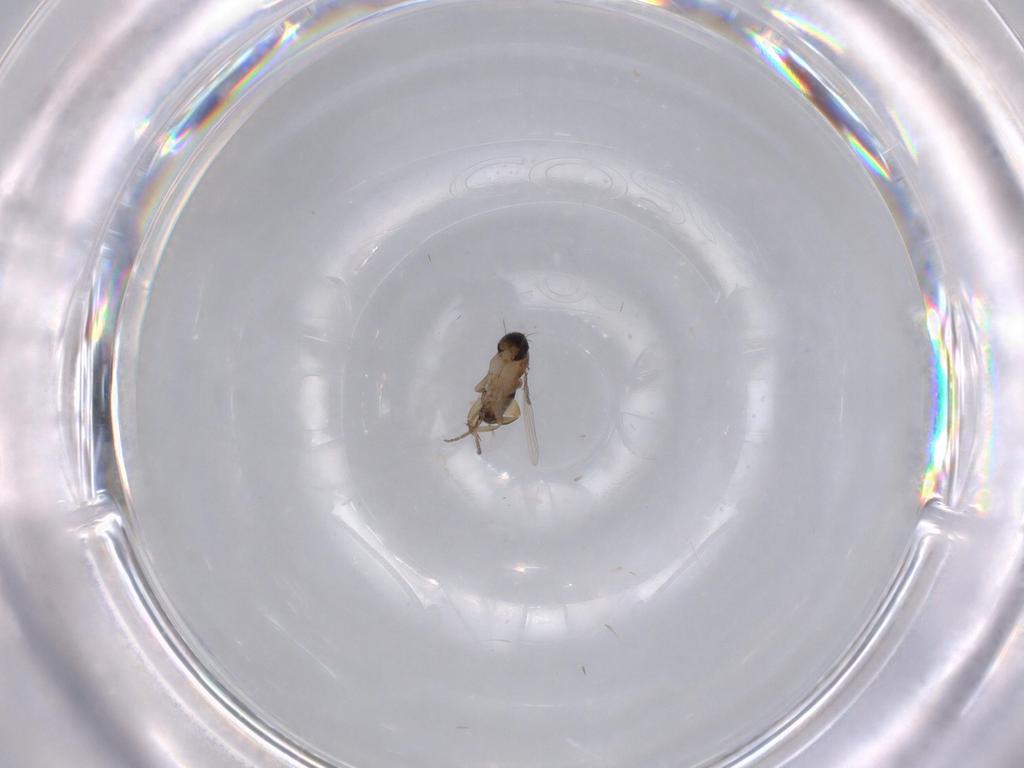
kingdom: Animalia
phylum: Arthropoda
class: Insecta
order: Diptera
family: Phoridae
